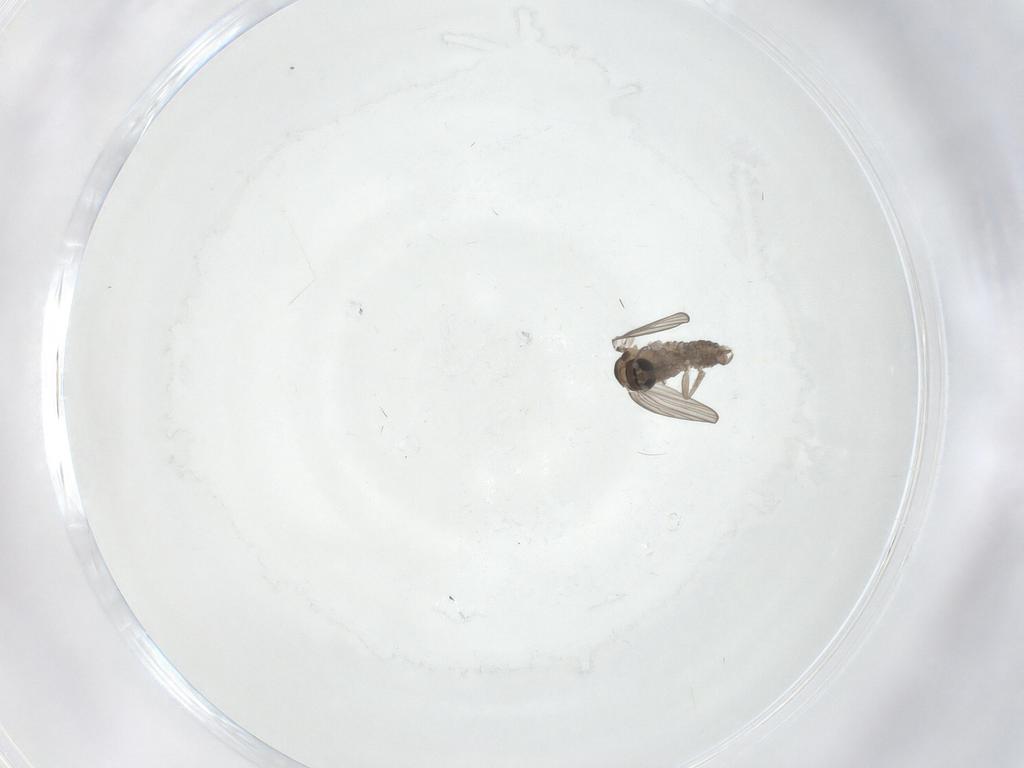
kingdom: Animalia
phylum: Arthropoda
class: Insecta
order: Diptera
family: Psychodidae
